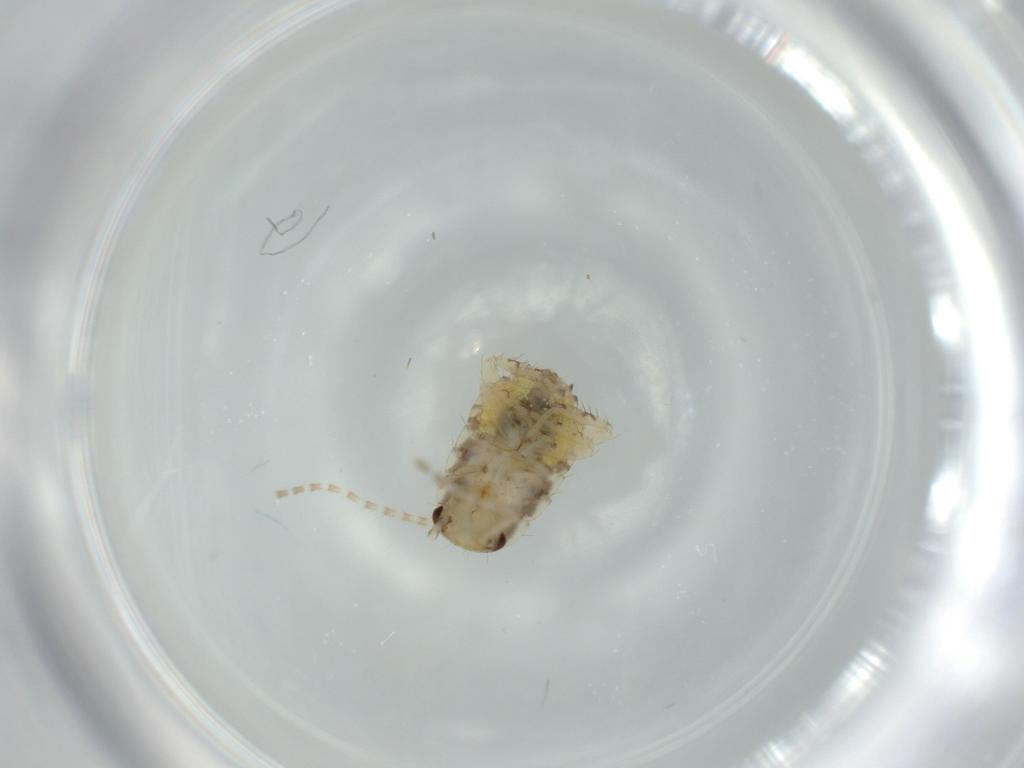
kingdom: Animalia
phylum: Arthropoda
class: Insecta
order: Blattodea
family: Ectobiidae
